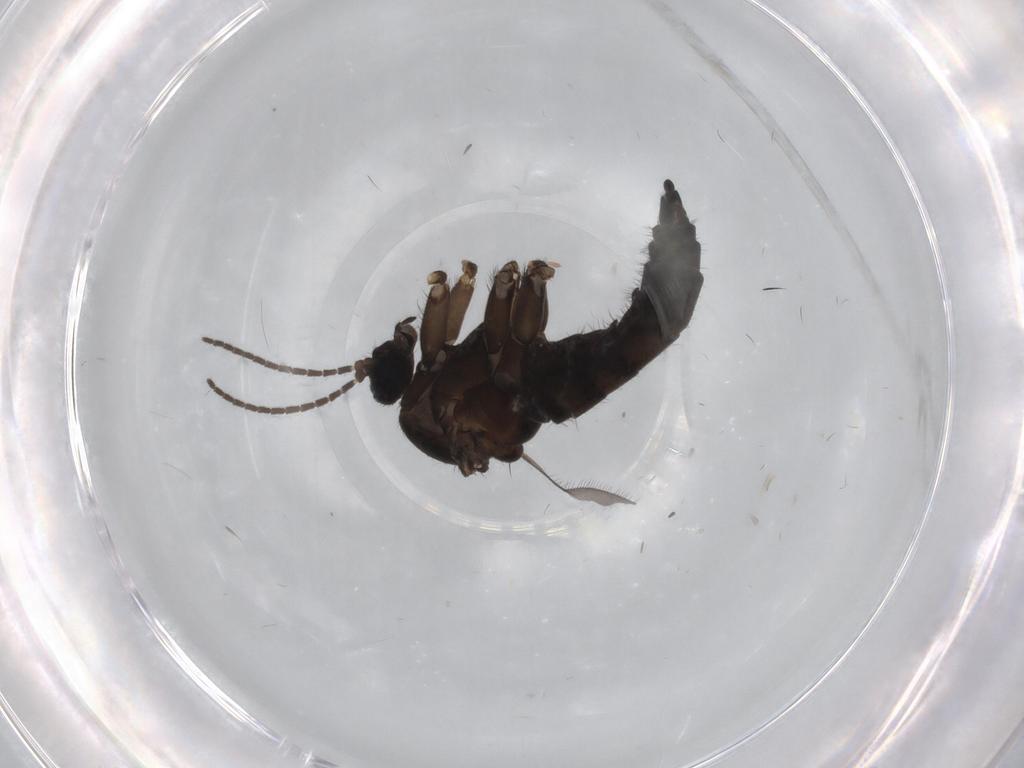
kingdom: Animalia
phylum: Arthropoda
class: Insecta
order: Diptera
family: Sciaridae
